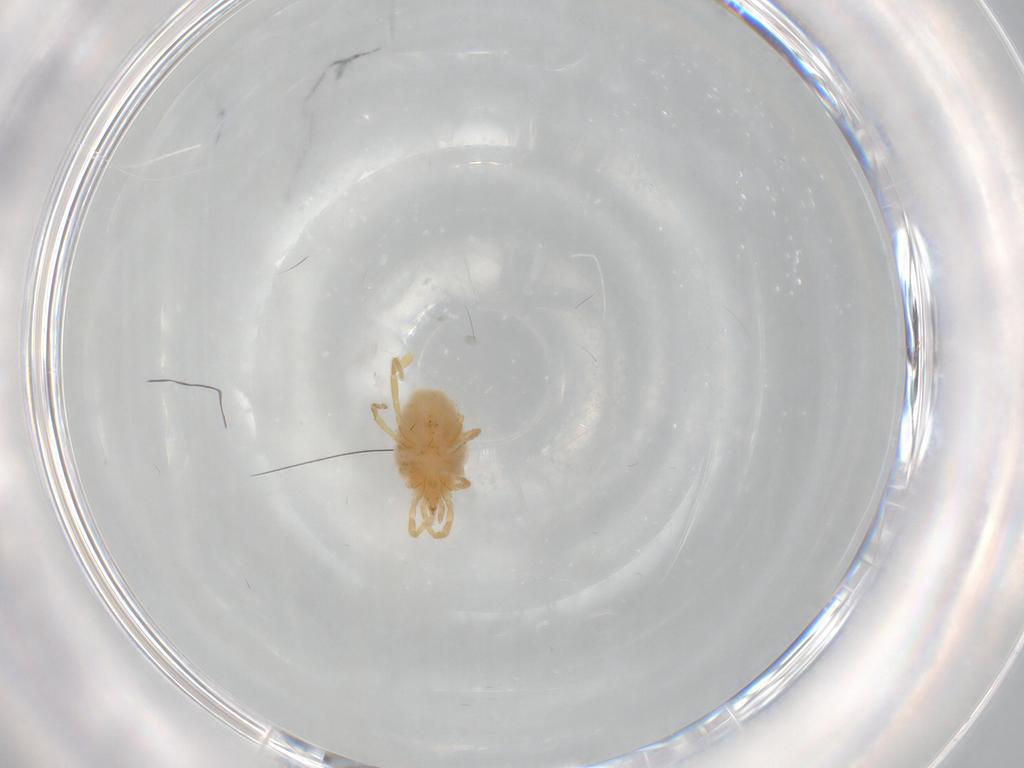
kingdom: Animalia
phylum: Arthropoda
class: Arachnida
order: Trombidiformes
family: Erythraeidae
